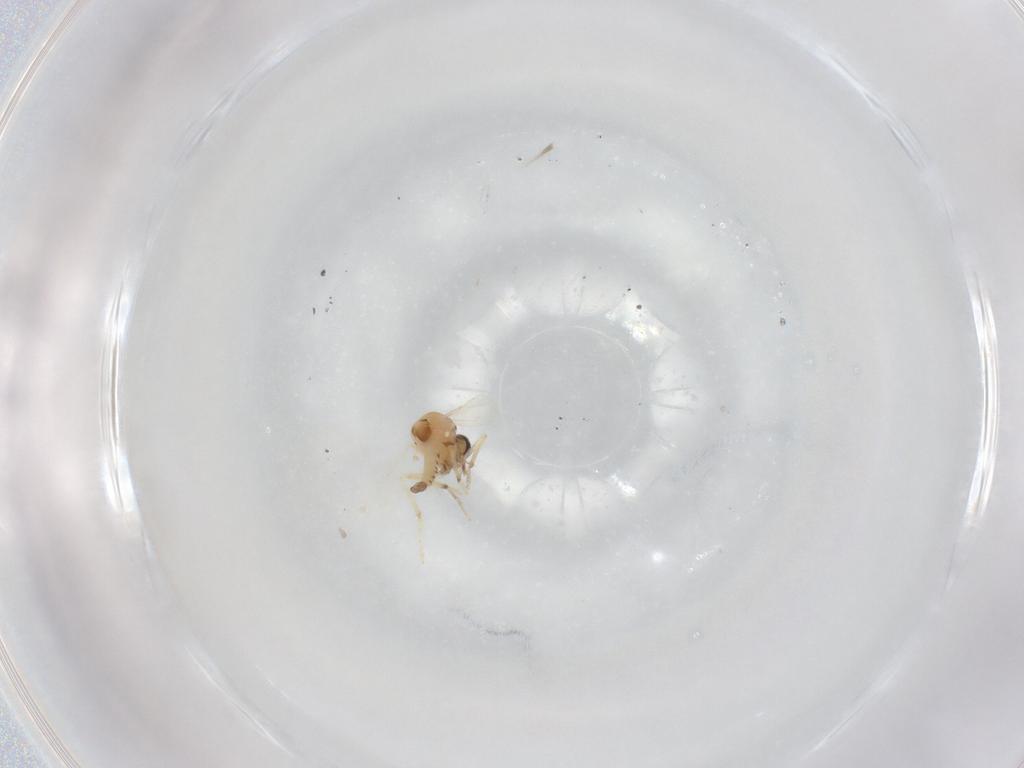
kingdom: Animalia
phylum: Arthropoda
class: Insecta
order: Diptera
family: Ceratopogonidae
